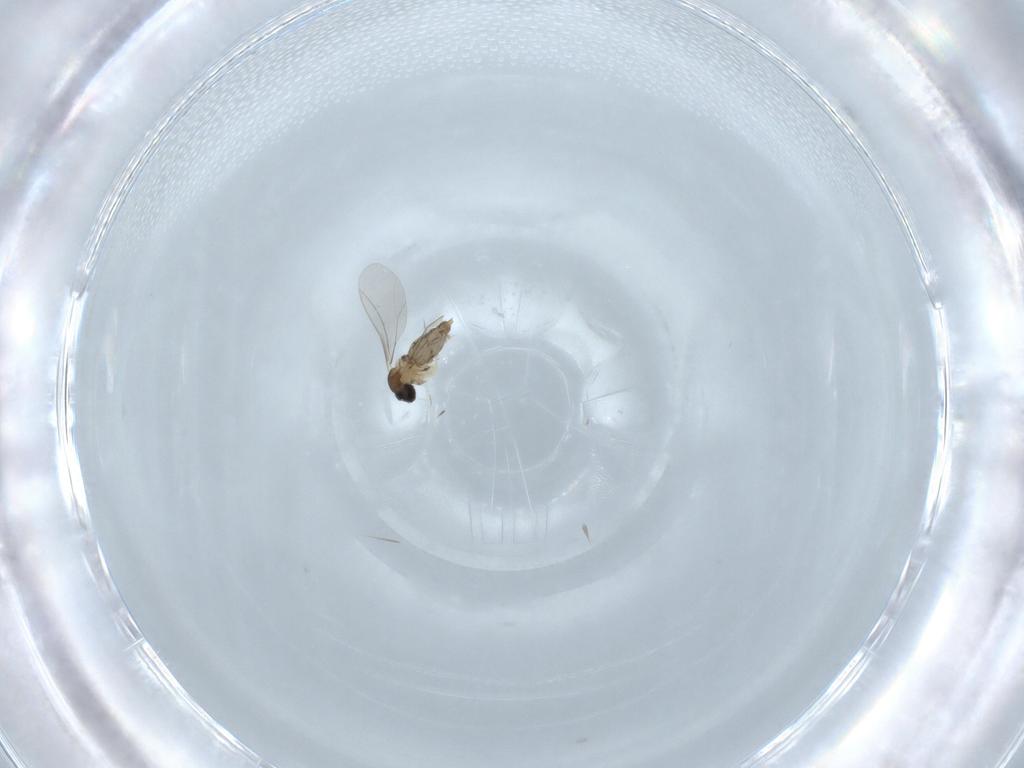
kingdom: Animalia
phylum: Arthropoda
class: Insecta
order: Diptera
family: Cecidomyiidae
